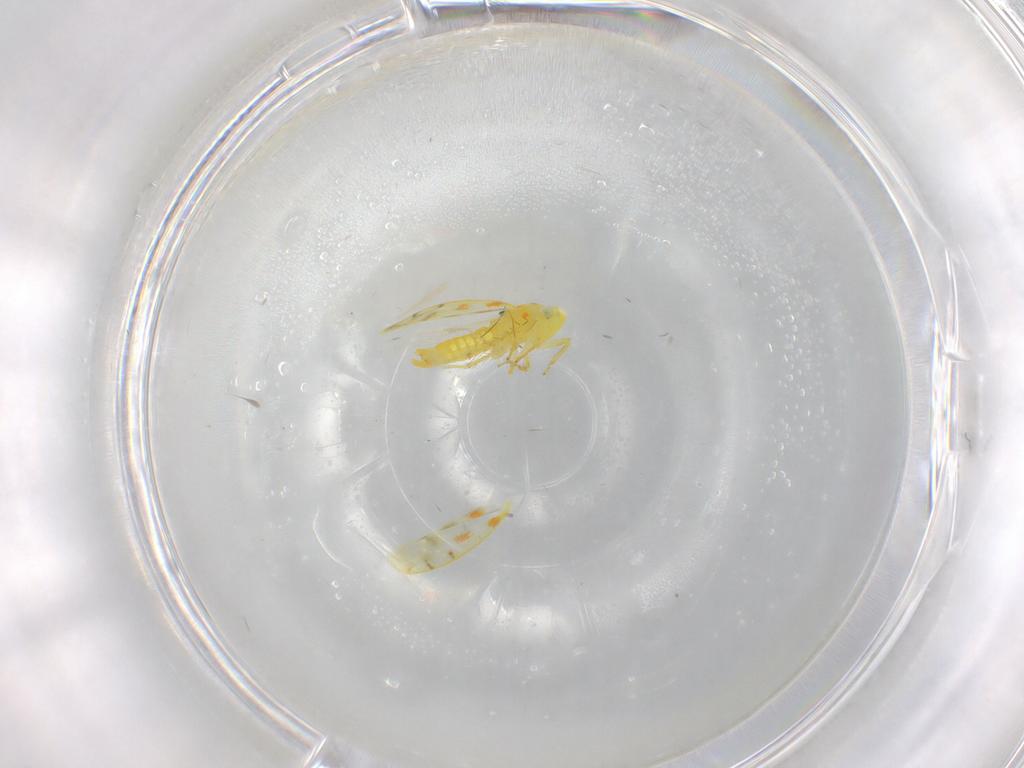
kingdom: Animalia
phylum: Arthropoda
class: Insecta
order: Hemiptera
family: Cicadellidae
